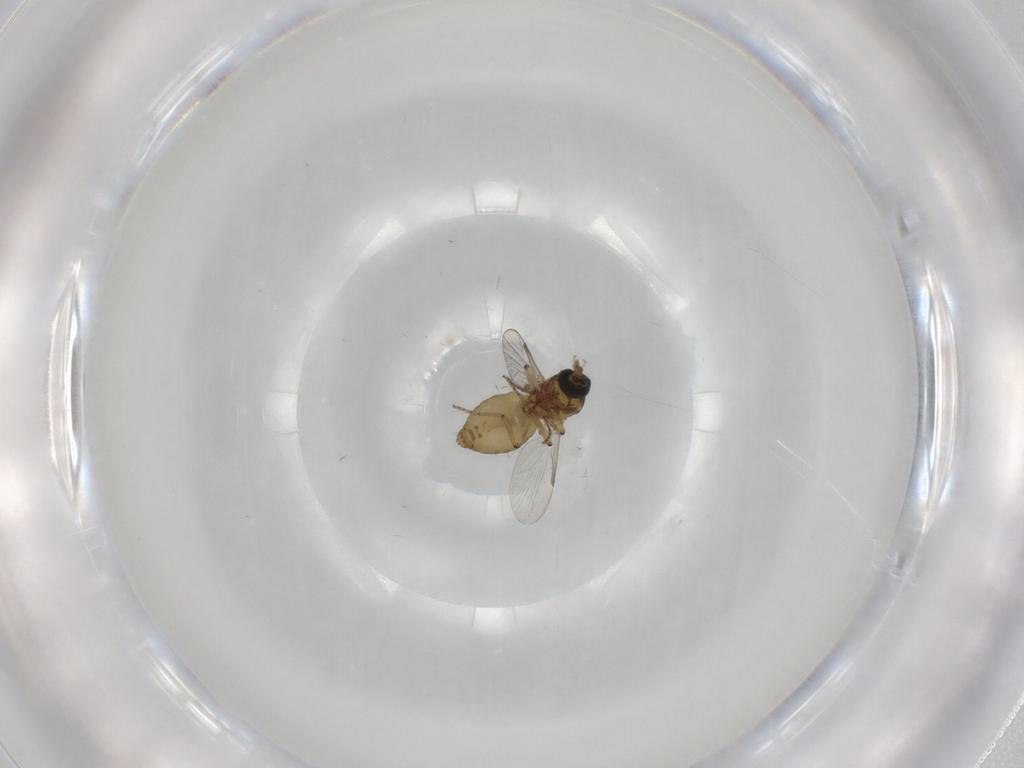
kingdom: Animalia
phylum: Arthropoda
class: Insecta
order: Diptera
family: Ceratopogonidae
